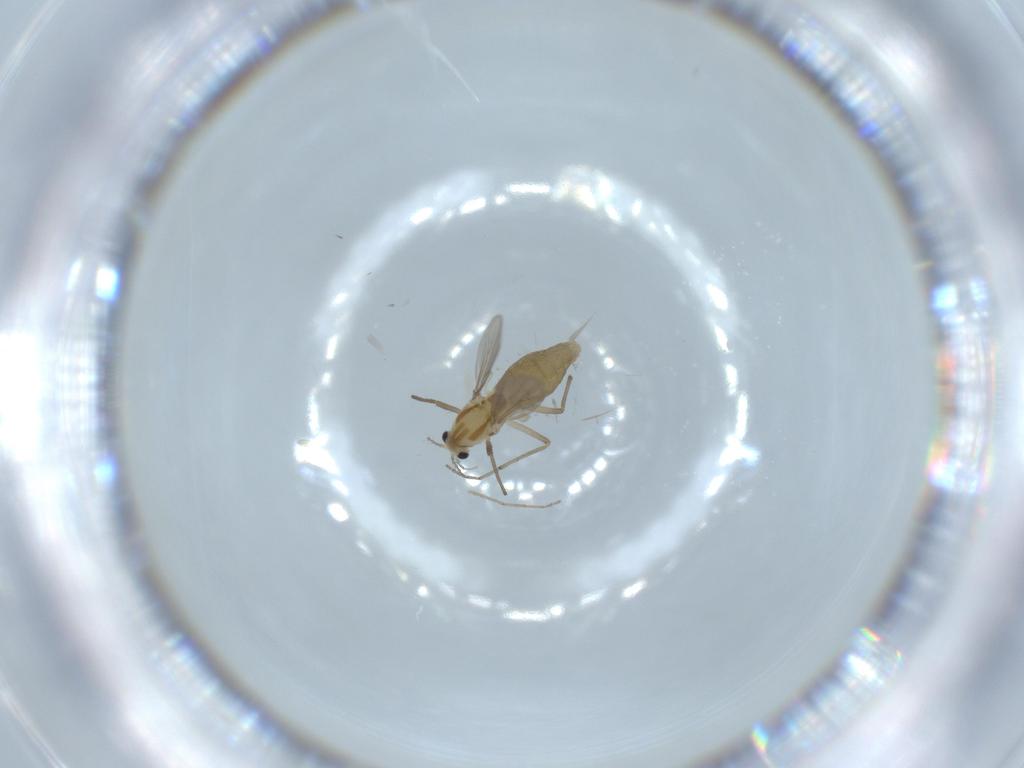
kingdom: Animalia
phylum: Arthropoda
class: Insecta
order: Diptera
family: Chironomidae
